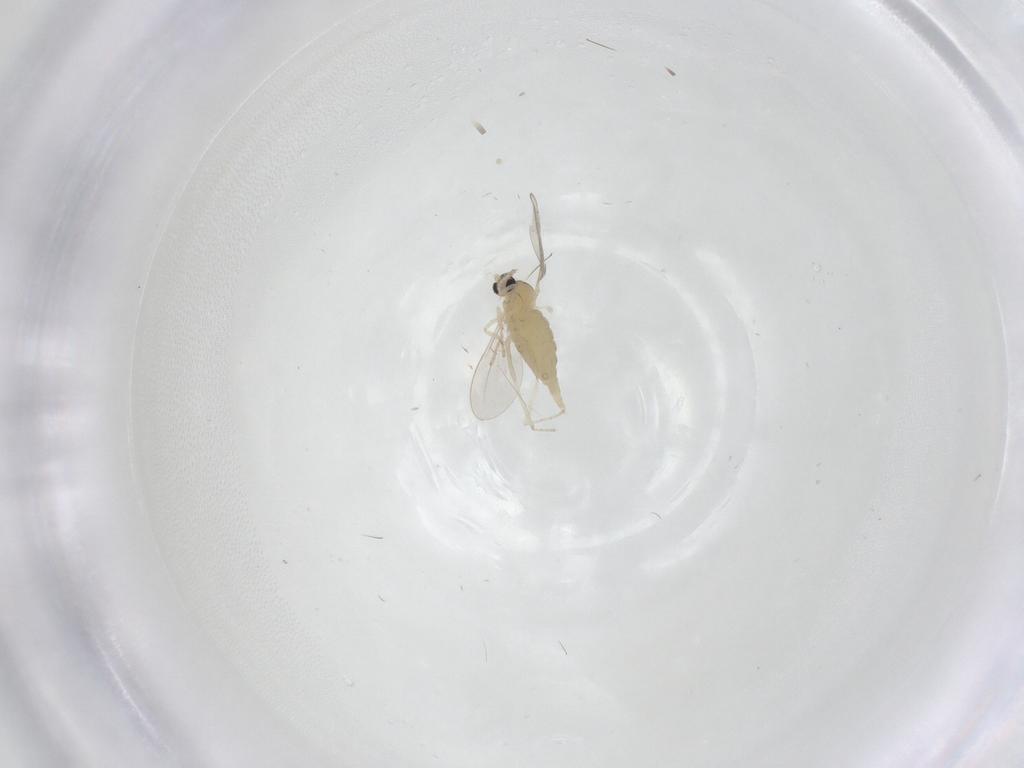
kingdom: Animalia
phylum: Arthropoda
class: Insecta
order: Diptera
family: Cecidomyiidae
